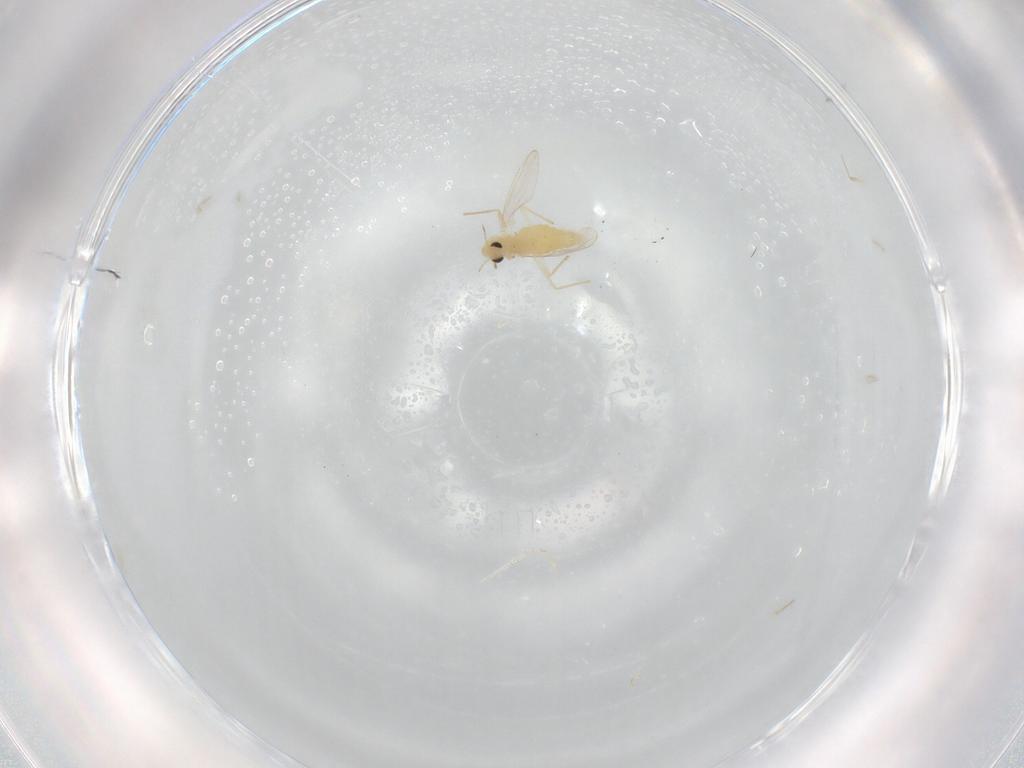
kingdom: Animalia
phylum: Arthropoda
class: Insecta
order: Diptera
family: Chironomidae
